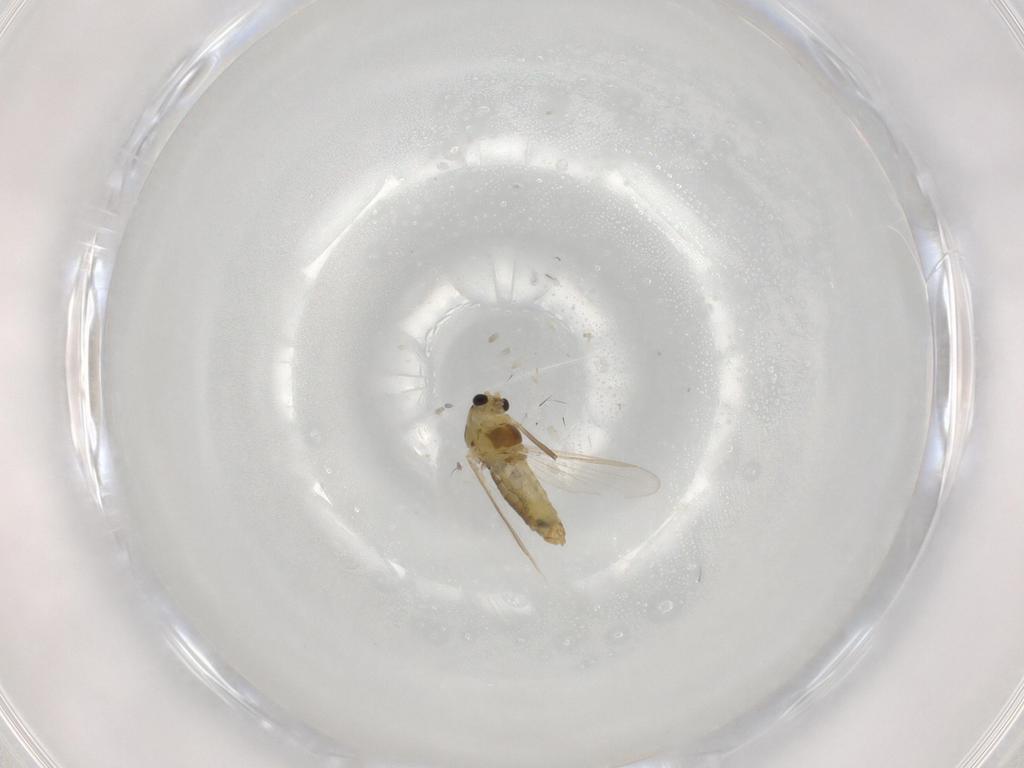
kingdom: Animalia
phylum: Arthropoda
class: Insecta
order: Diptera
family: Chironomidae
